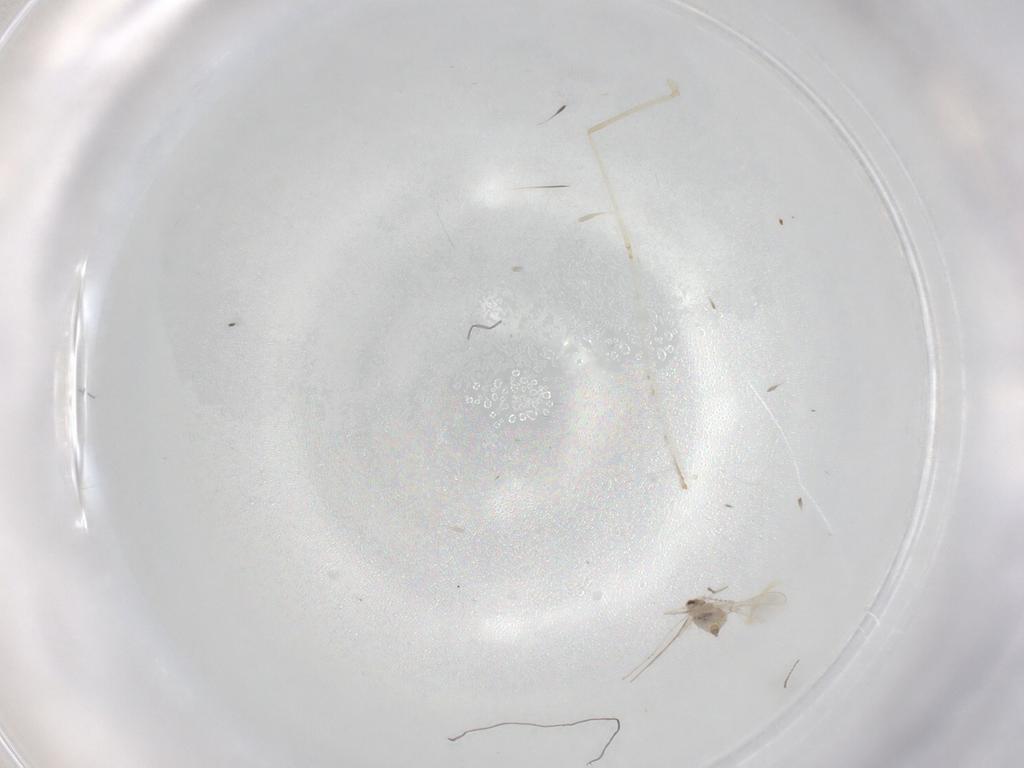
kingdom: Animalia
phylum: Arthropoda
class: Insecta
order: Diptera
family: Cecidomyiidae
